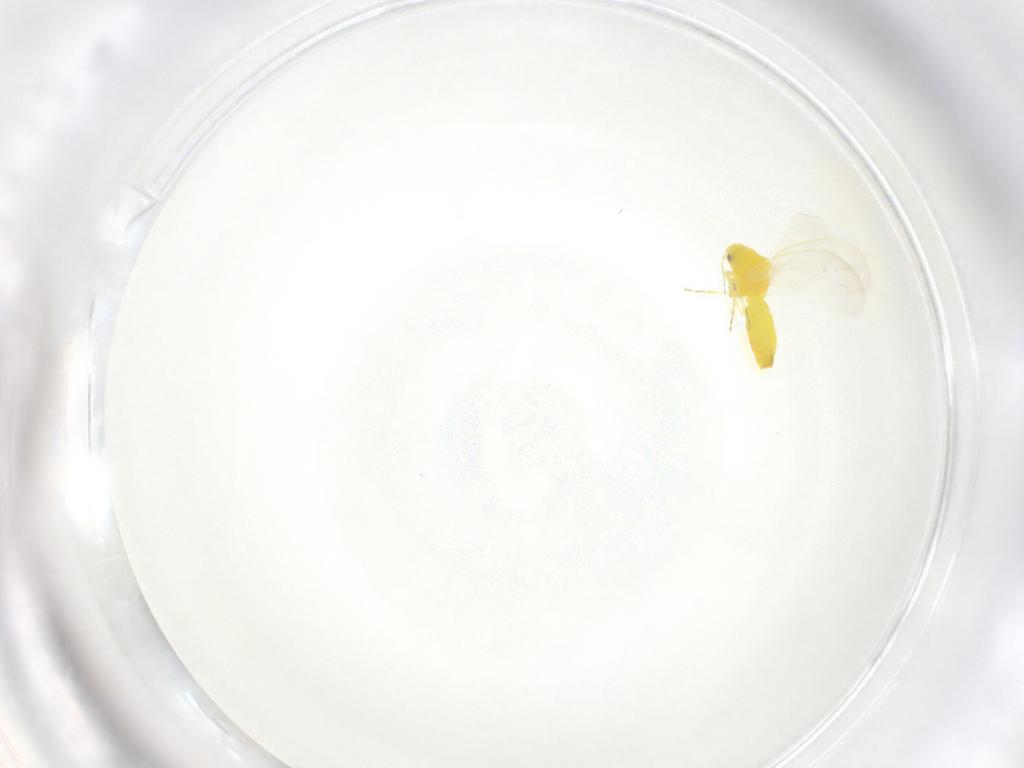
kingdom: Animalia
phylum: Arthropoda
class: Insecta
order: Hemiptera
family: Aleyrodidae
